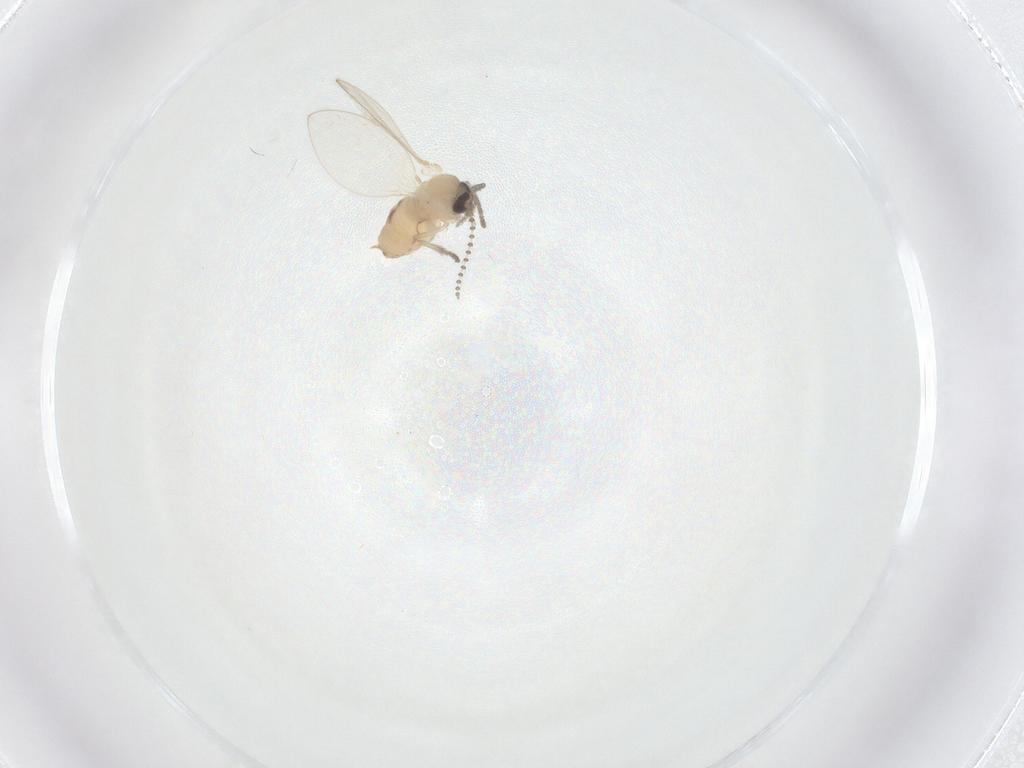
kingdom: Animalia
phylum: Arthropoda
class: Insecta
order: Diptera
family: Psychodidae
